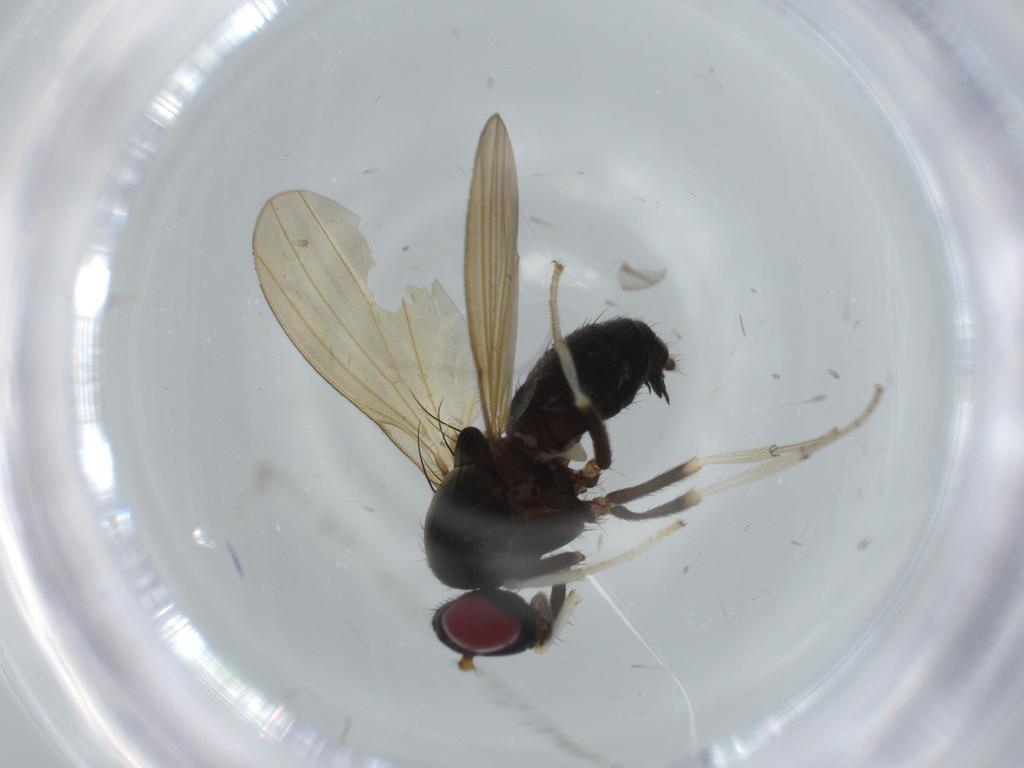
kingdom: Animalia
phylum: Arthropoda
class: Insecta
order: Diptera
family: Lauxaniidae
